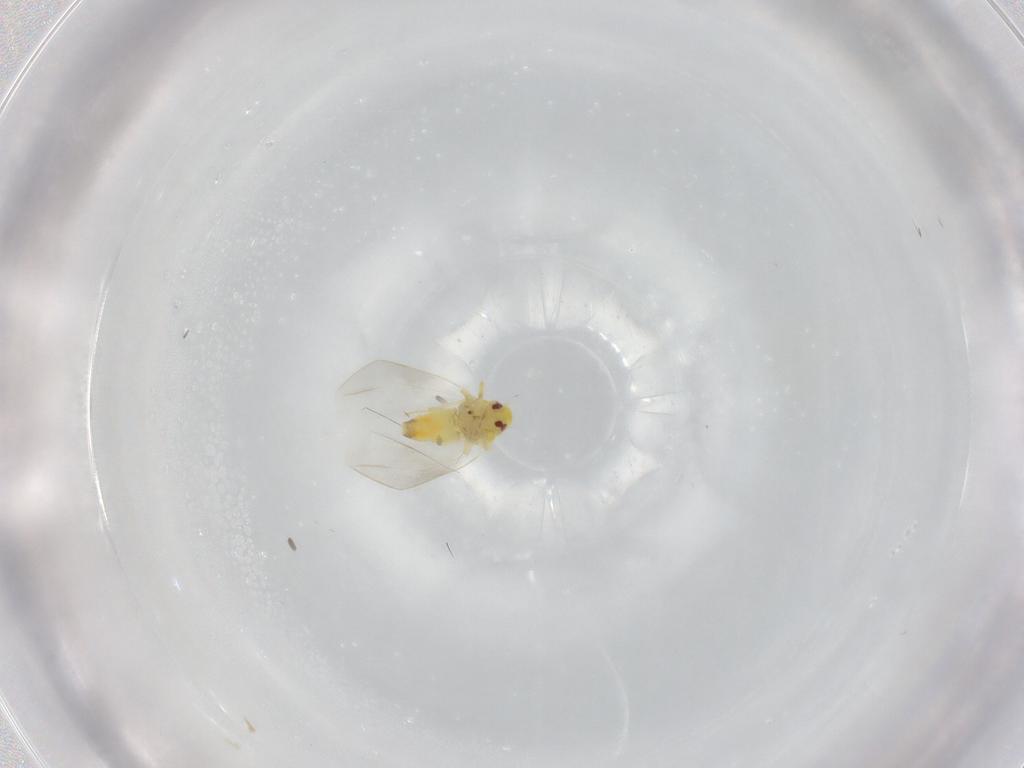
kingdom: Animalia
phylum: Arthropoda
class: Insecta
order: Hemiptera
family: Aleyrodidae
